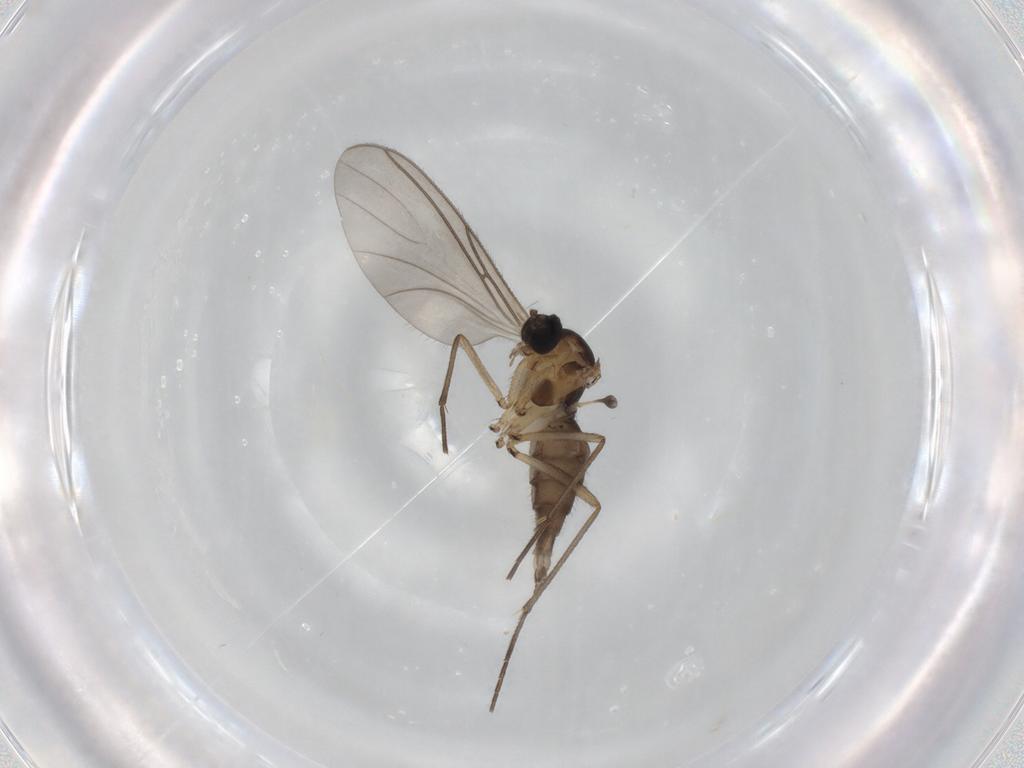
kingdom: Animalia
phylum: Arthropoda
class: Insecta
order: Diptera
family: Sciaridae
